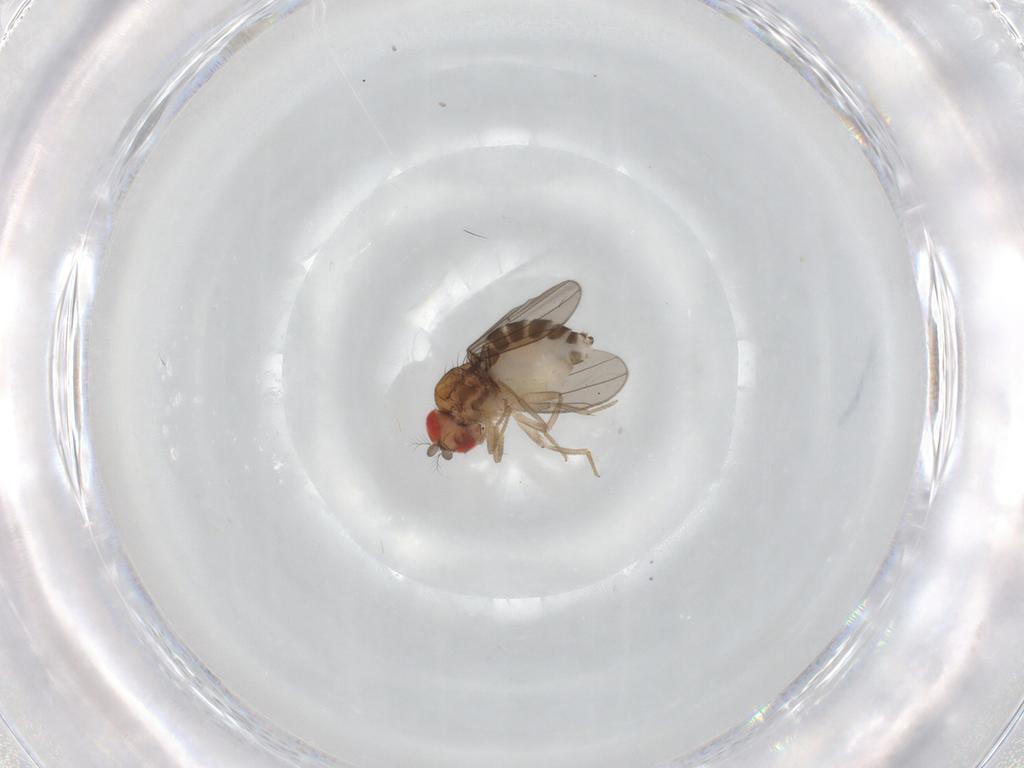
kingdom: Animalia
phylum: Arthropoda
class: Insecta
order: Diptera
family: Drosophilidae
